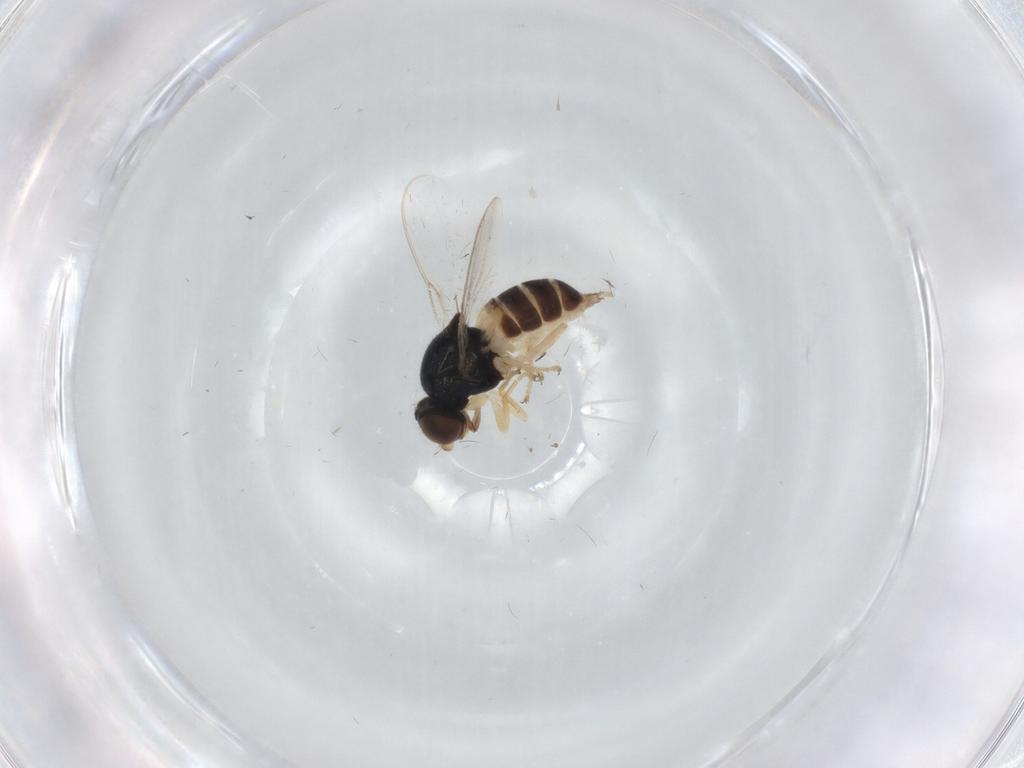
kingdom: Animalia
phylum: Arthropoda
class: Insecta
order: Diptera
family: Chloropidae
